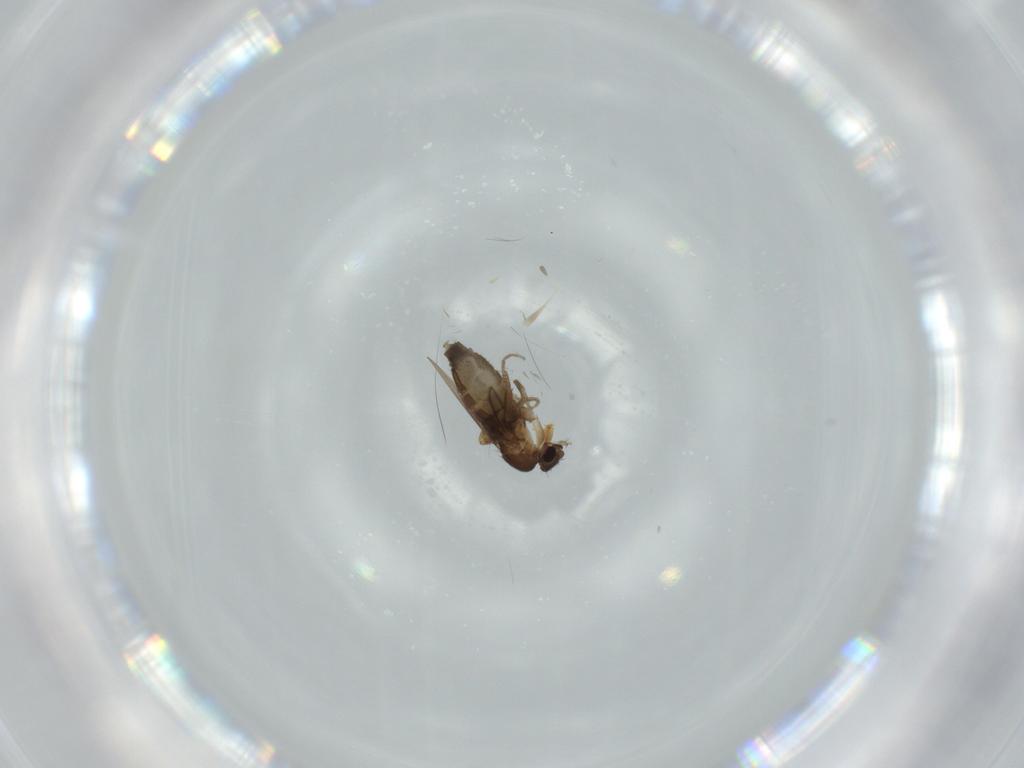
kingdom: Animalia
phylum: Arthropoda
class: Insecta
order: Diptera
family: Phoridae
